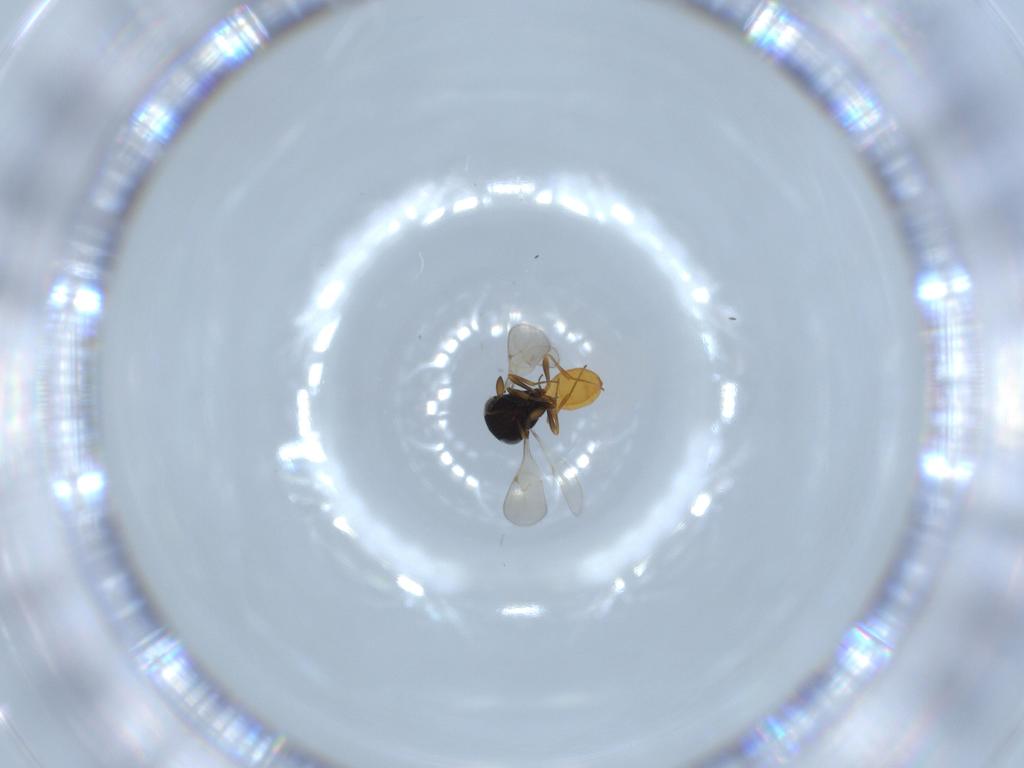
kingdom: Animalia
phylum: Arthropoda
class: Insecta
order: Hymenoptera
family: Scelionidae
